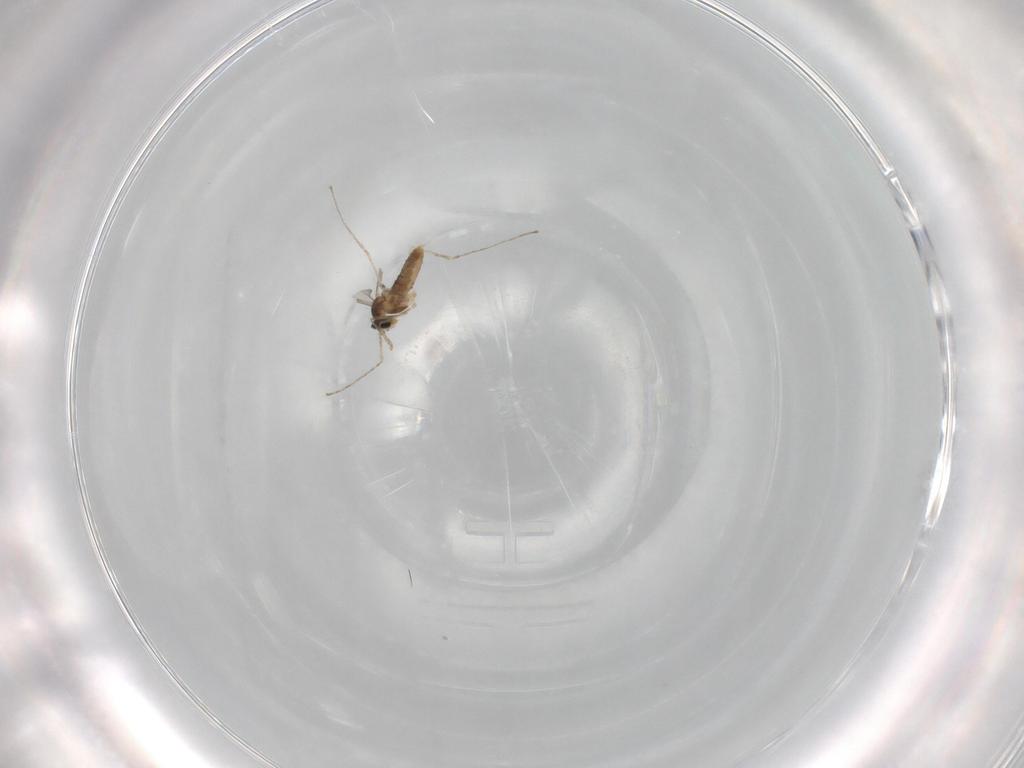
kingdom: Animalia
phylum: Arthropoda
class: Insecta
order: Diptera
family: Cecidomyiidae
